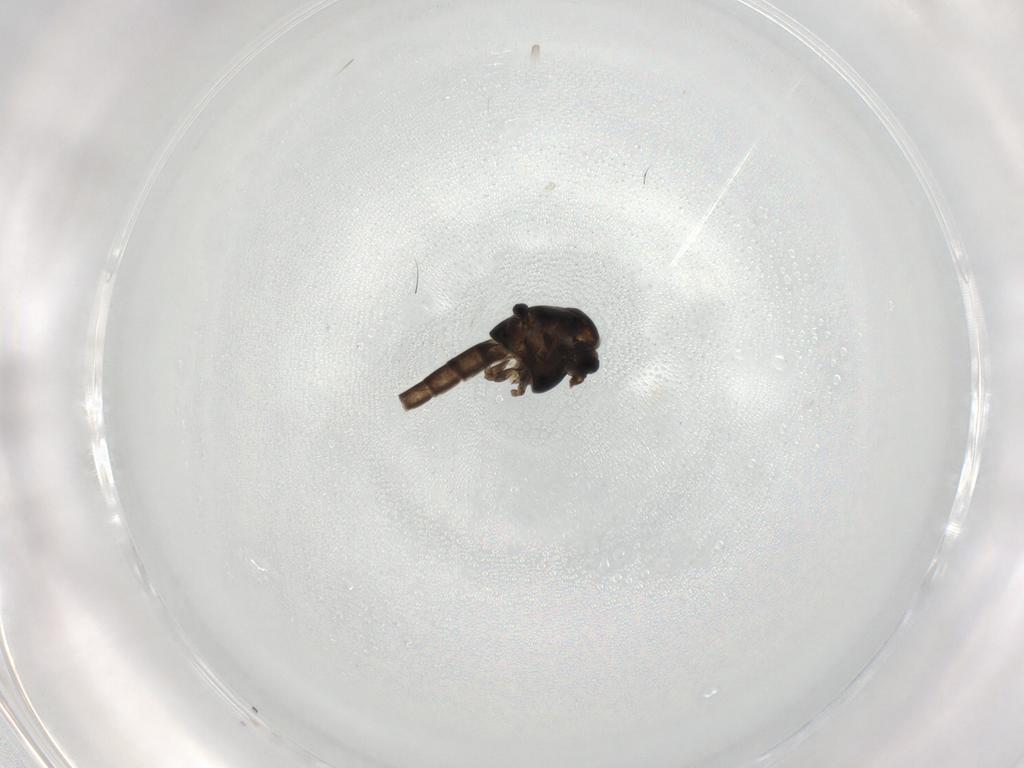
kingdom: Animalia
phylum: Arthropoda
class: Insecta
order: Diptera
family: Chironomidae
